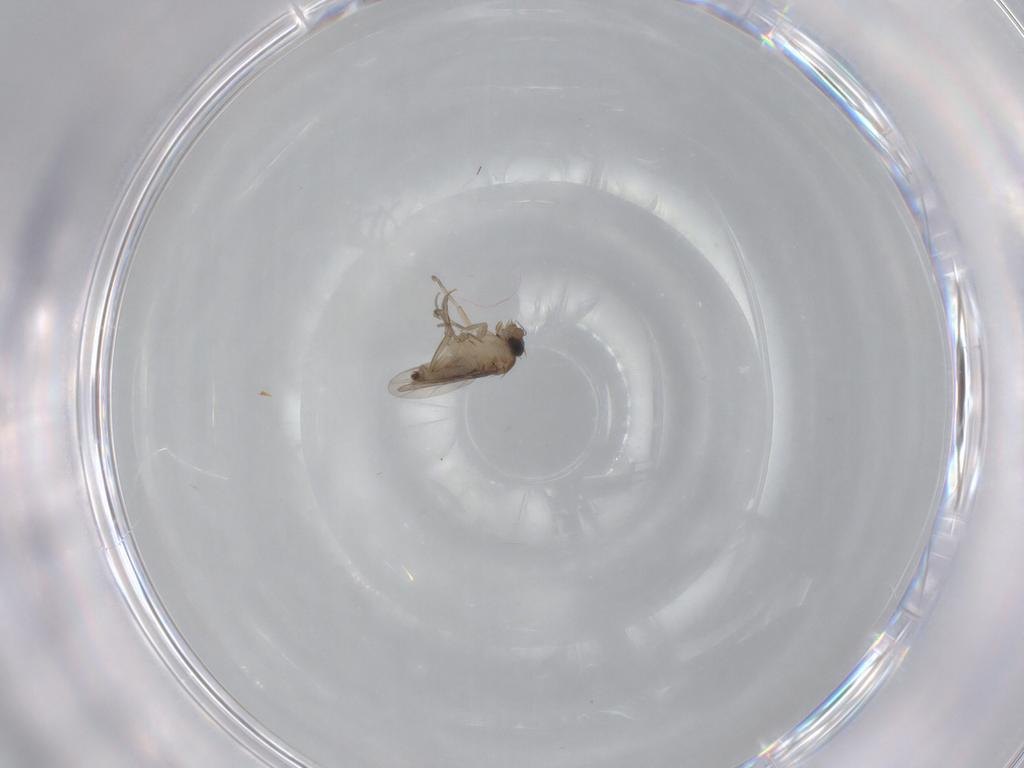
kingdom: Animalia
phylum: Arthropoda
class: Insecta
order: Diptera
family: Phoridae
